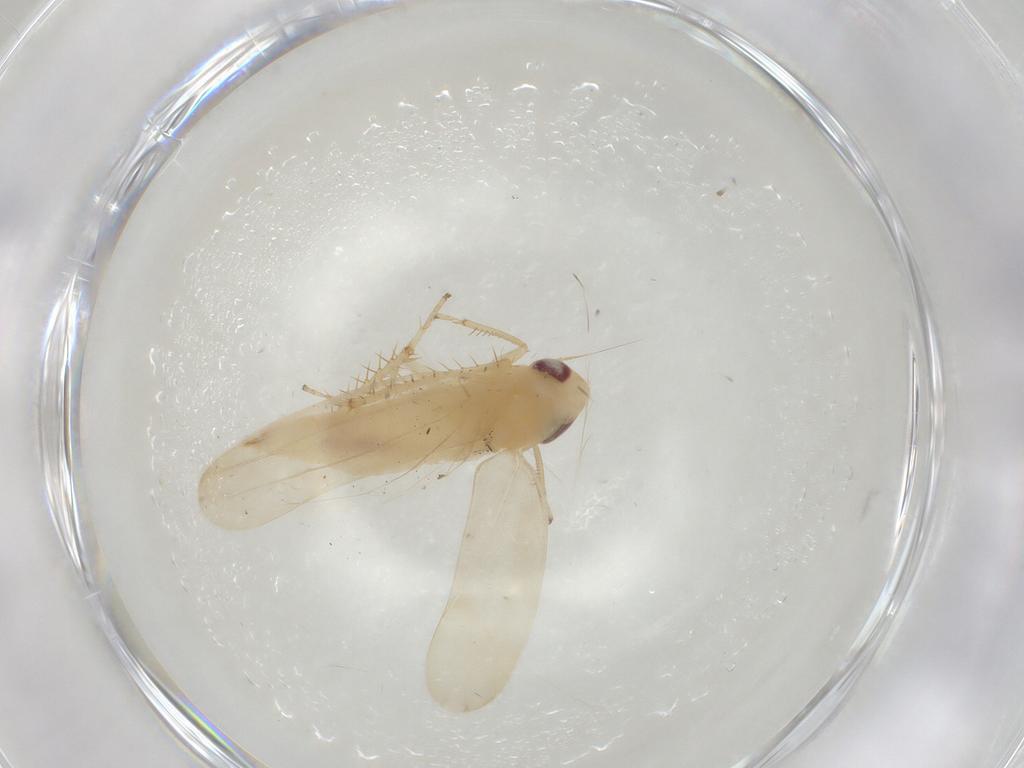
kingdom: Animalia
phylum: Arthropoda
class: Insecta
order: Hemiptera
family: Cicadellidae
